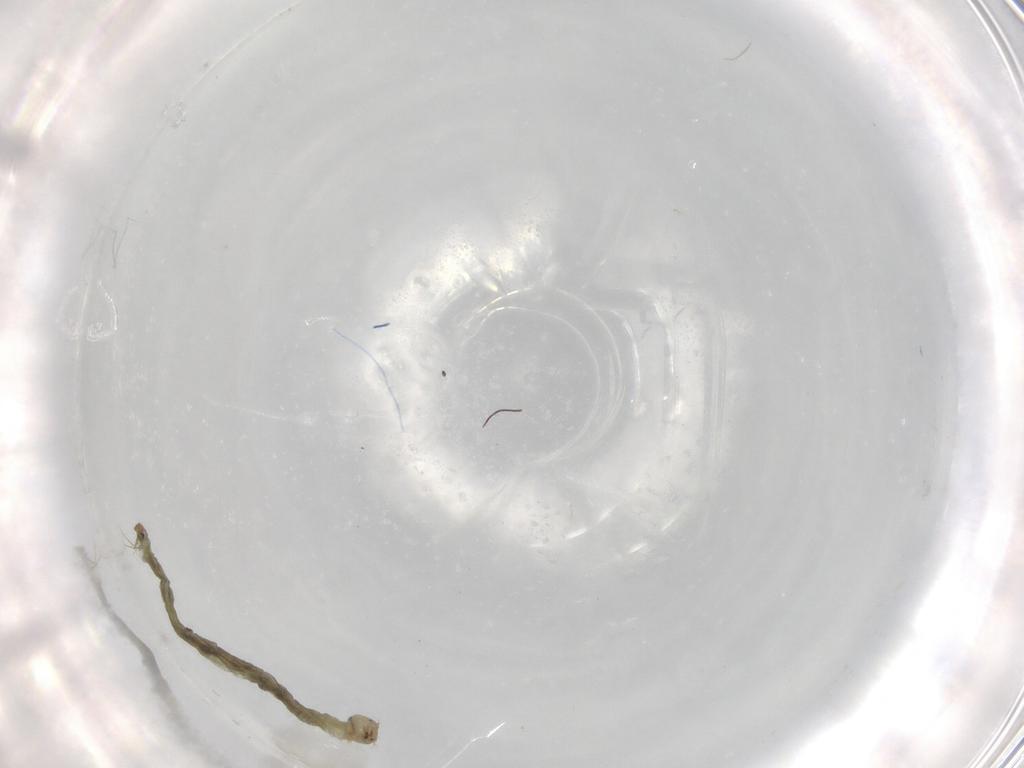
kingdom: Animalia
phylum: Arthropoda
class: Insecta
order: Diptera
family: Chironomidae
